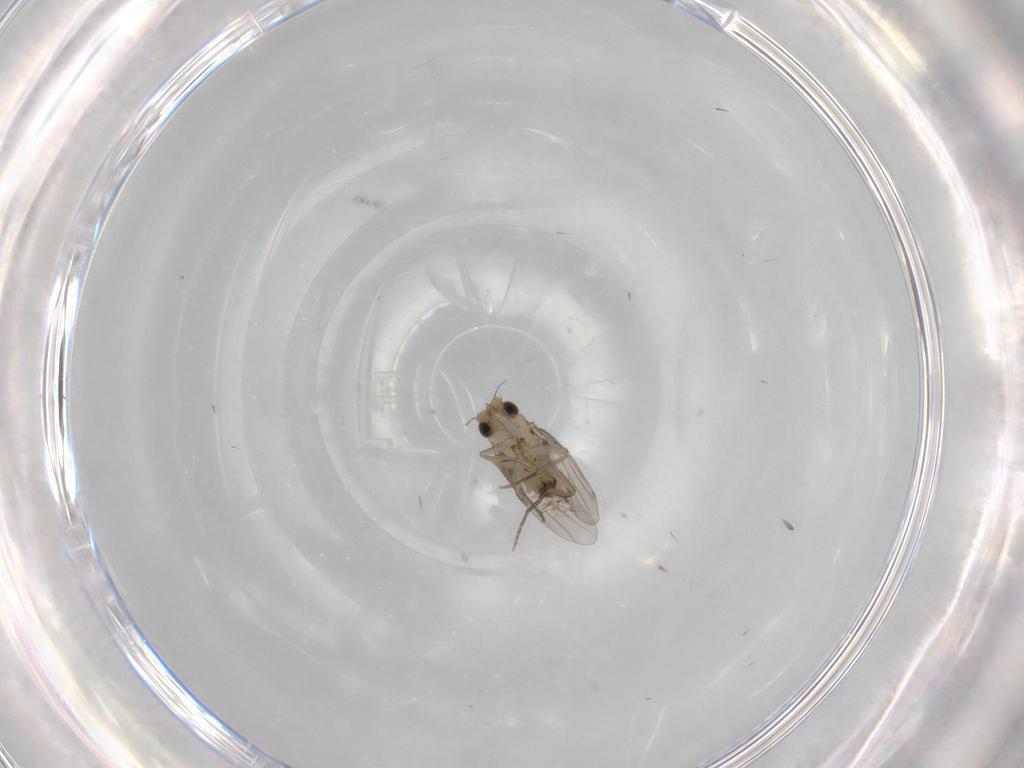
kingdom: Animalia
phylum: Arthropoda
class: Insecta
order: Diptera
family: Phoridae
